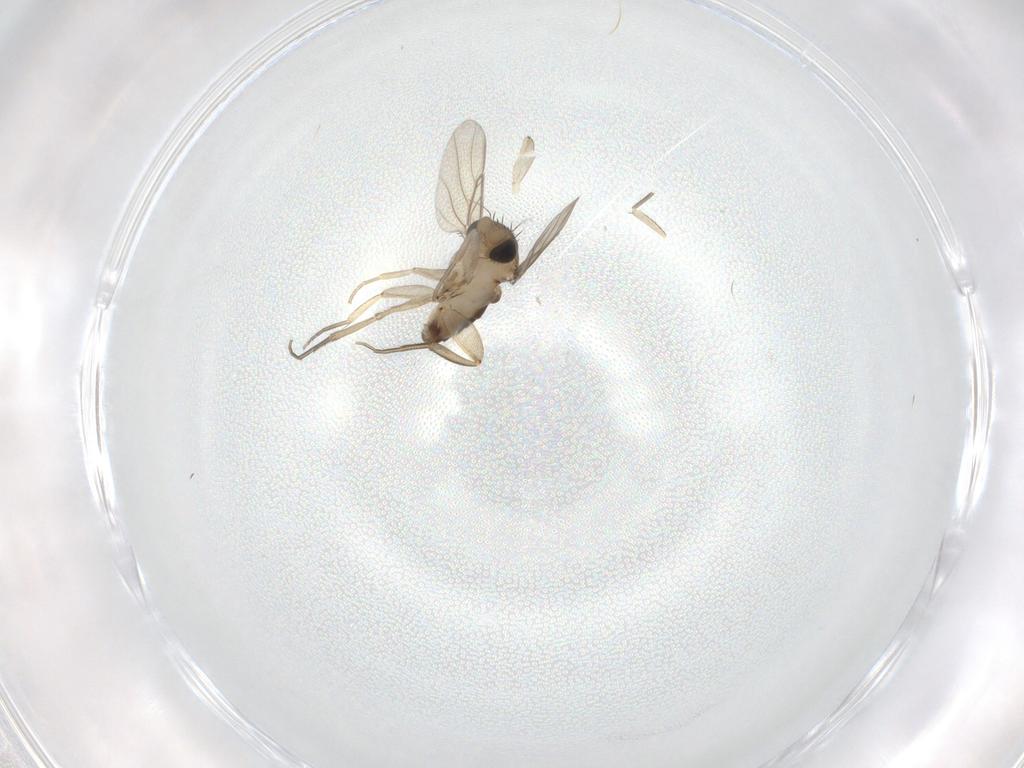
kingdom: Animalia
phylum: Arthropoda
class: Insecta
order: Diptera
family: Phoridae
